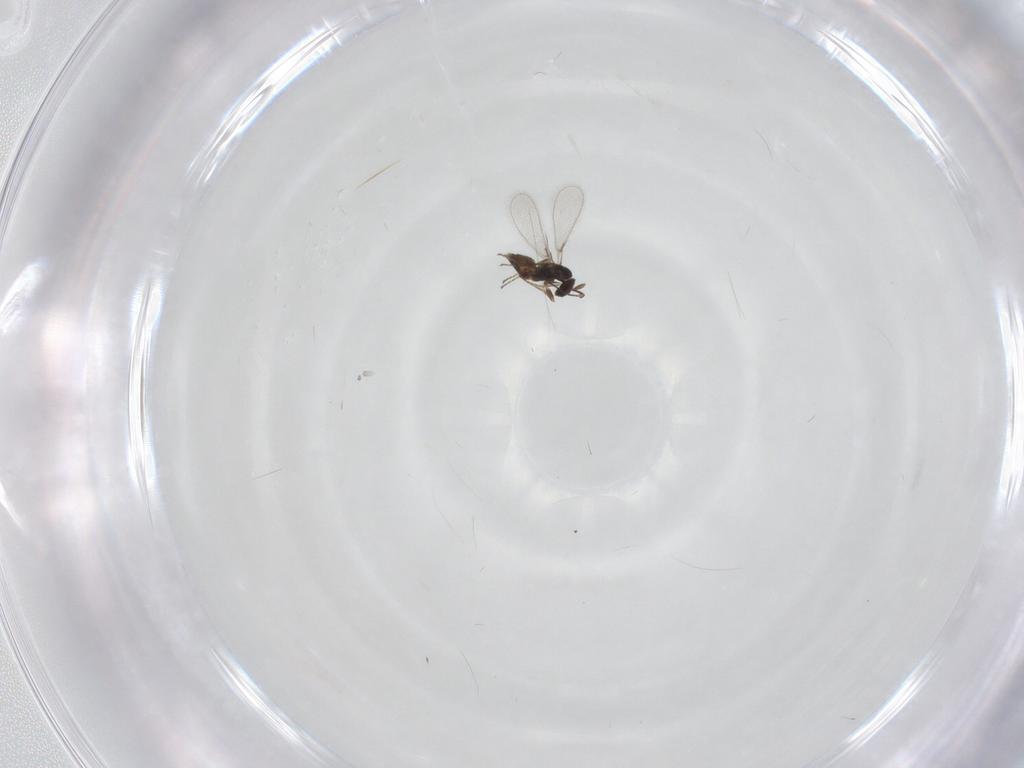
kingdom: Animalia
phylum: Arthropoda
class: Insecta
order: Hymenoptera
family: Mymaridae
